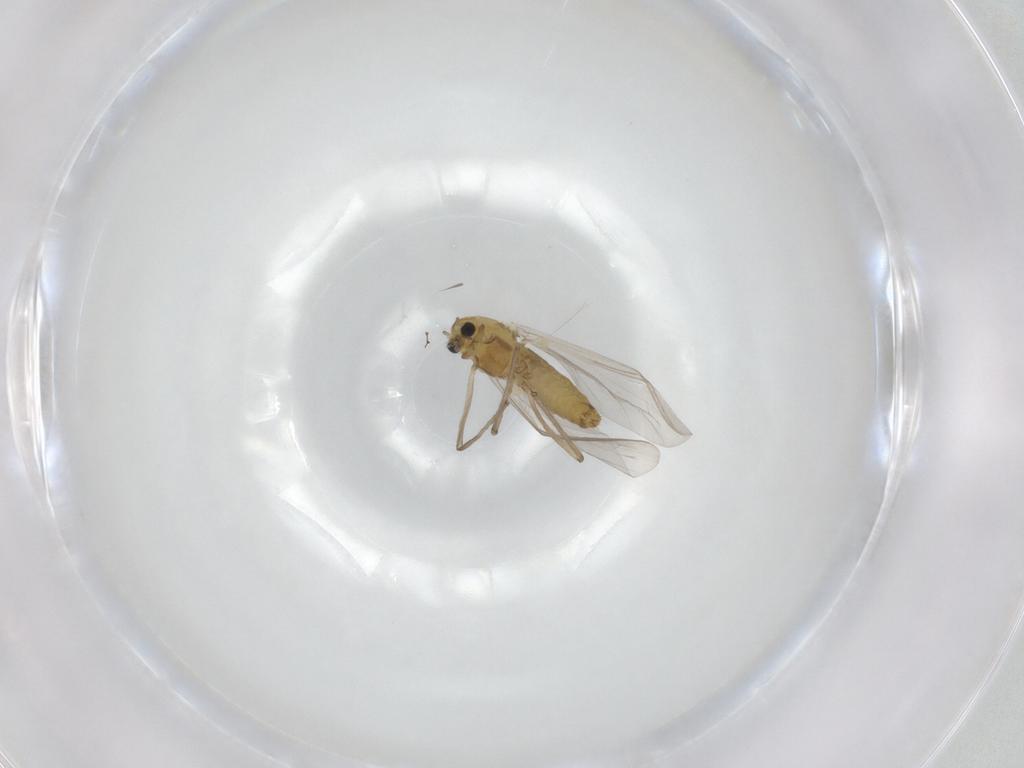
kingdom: Animalia
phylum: Arthropoda
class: Insecta
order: Diptera
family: Chironomidae
